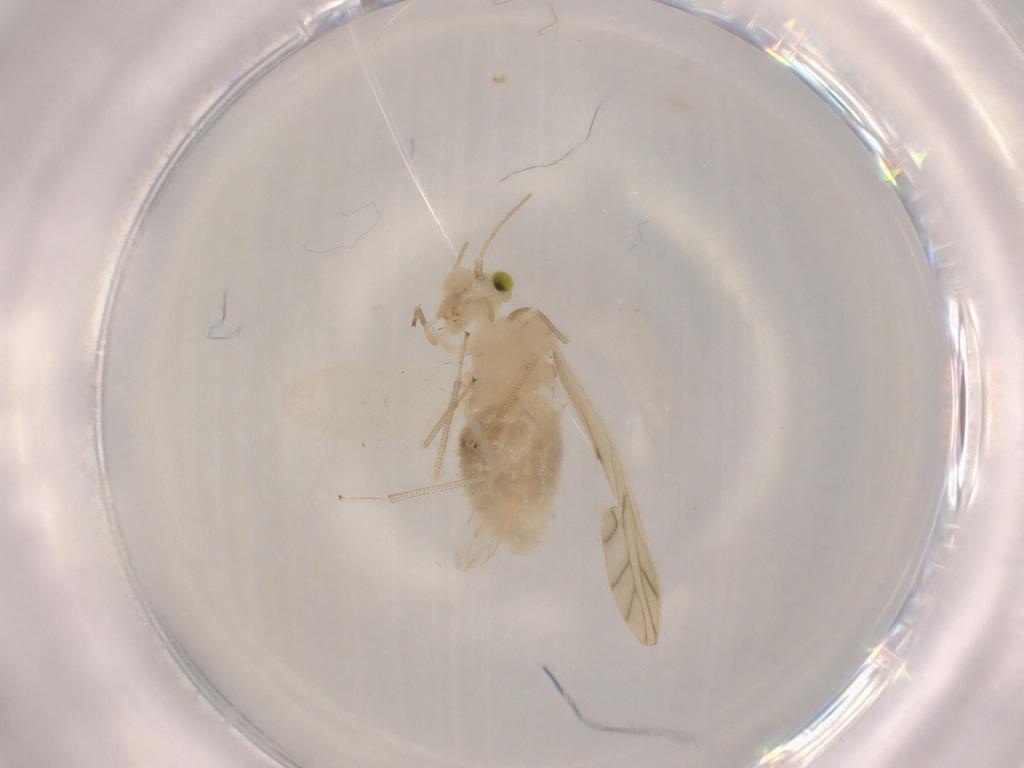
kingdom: Animalia
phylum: Arthropoda
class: Insecta
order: Psocodea
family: Caeciliusidae
